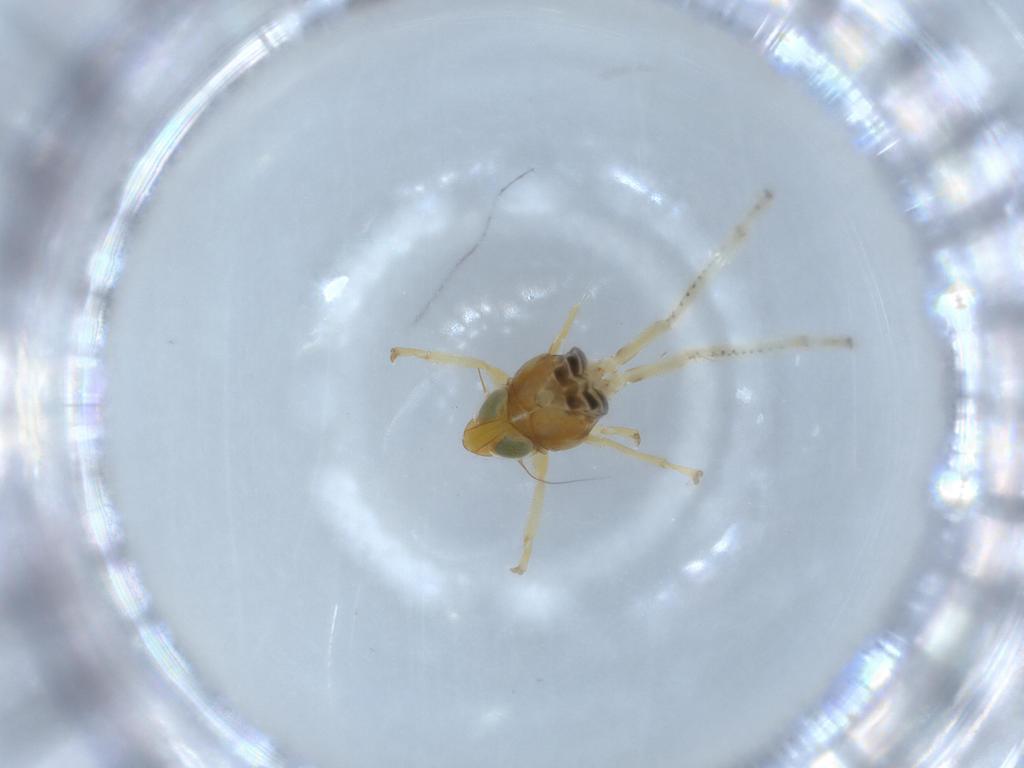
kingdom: Animalia
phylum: Arthropoda
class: Insecta
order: Hemiptera
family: Cicadellidae
